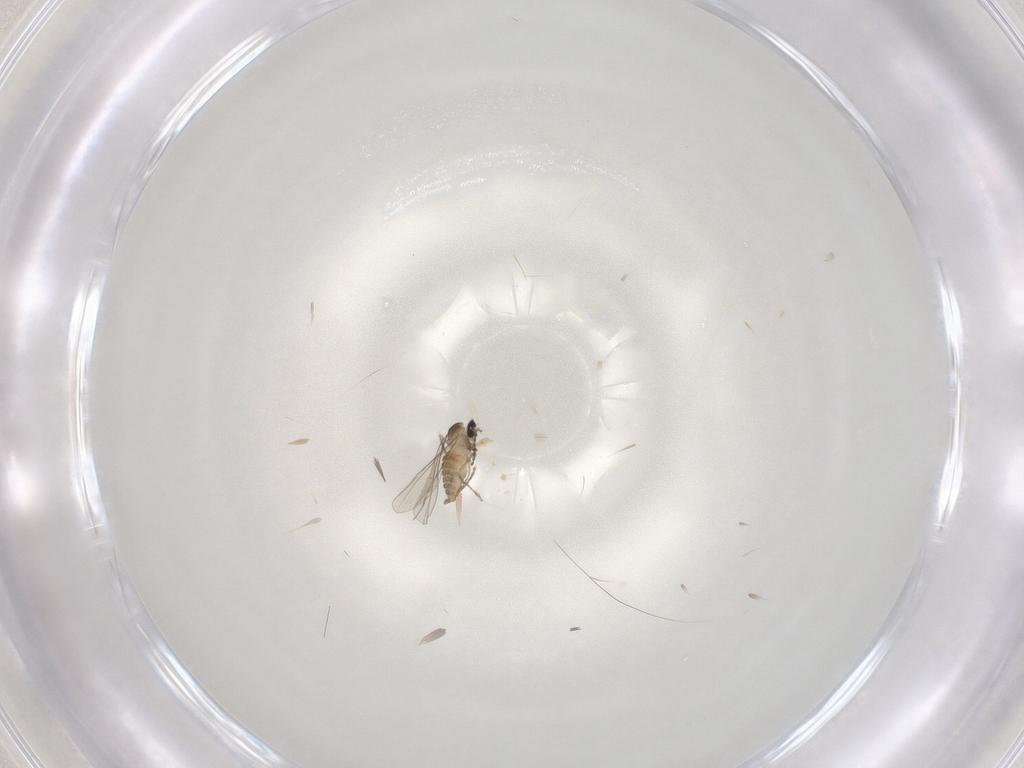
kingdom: Animalia
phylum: Arthropoda
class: Insecta
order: Diptera
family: Cecidomyiidae
